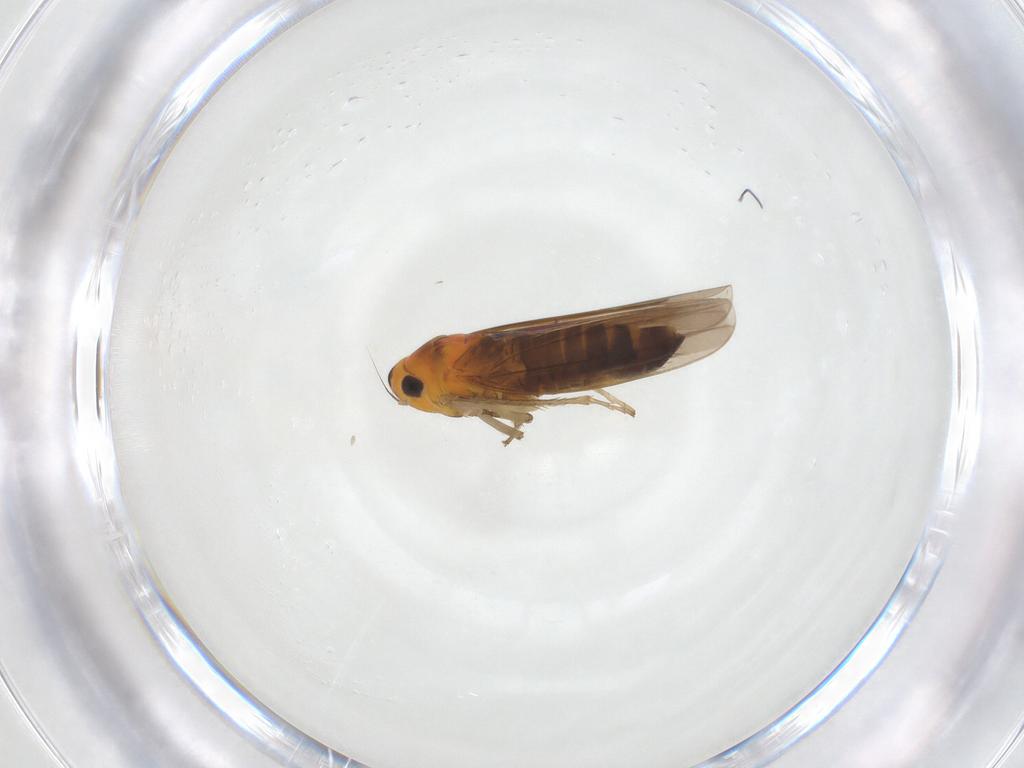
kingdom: Animalia
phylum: Arthropoda
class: Insecta
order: Hemiptera
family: Cicadellidae
